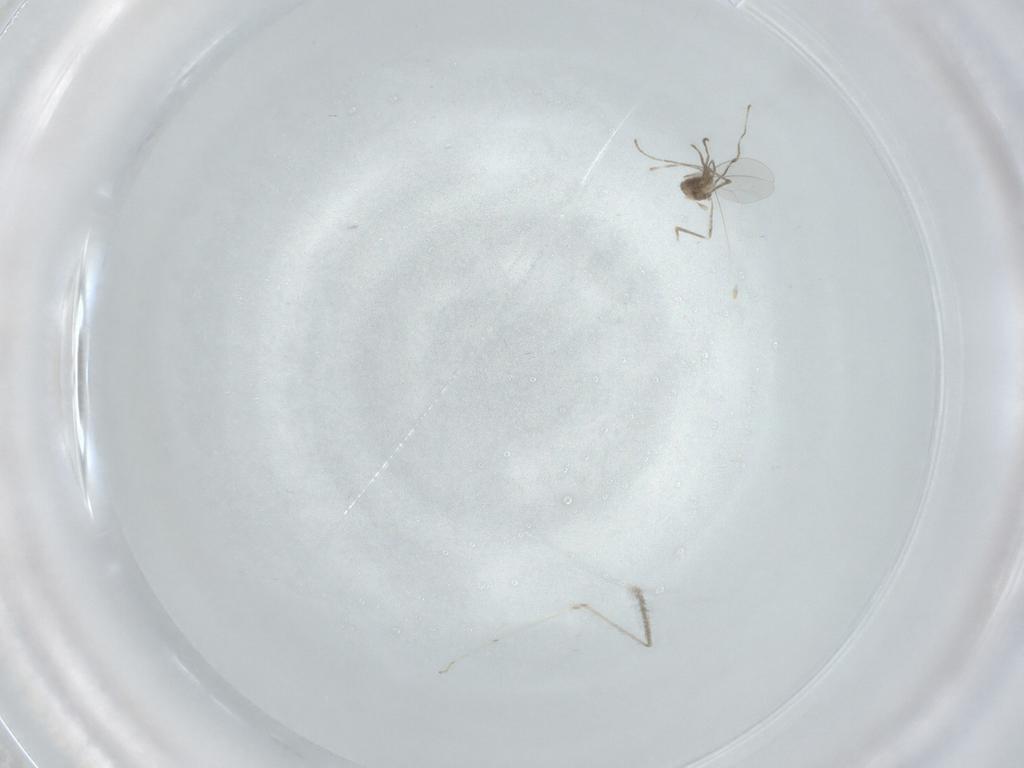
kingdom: Animalia
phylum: Arthropoda
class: Insecta
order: Diptera
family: Cecidomyiidae
